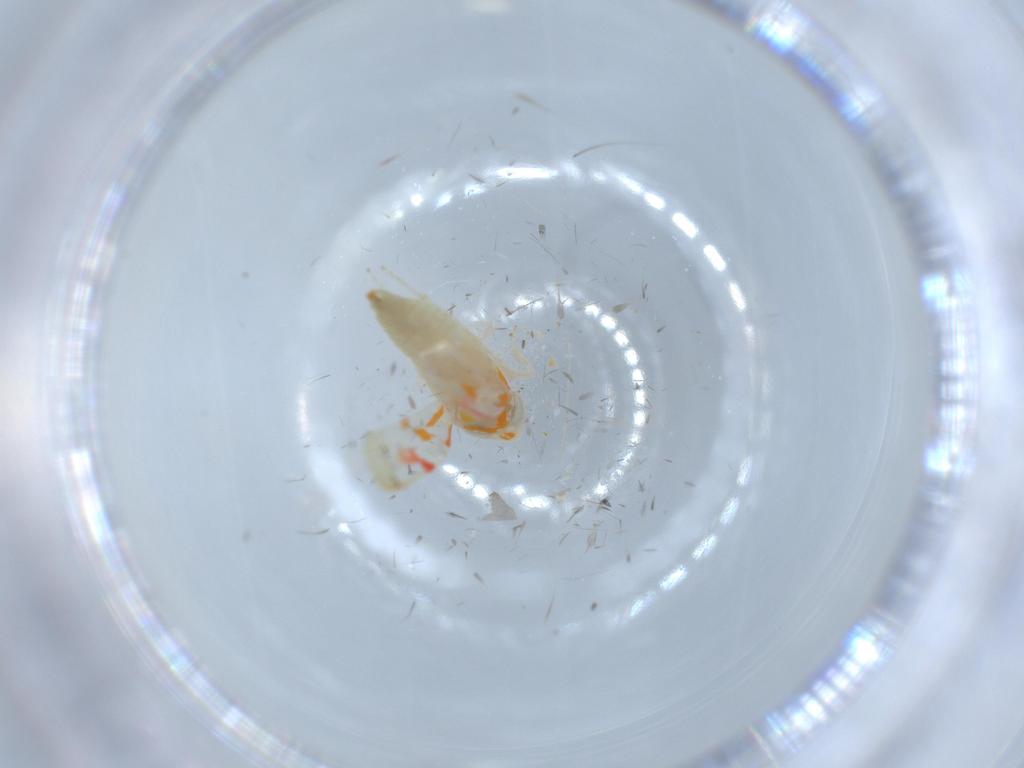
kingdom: Animalia
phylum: Arthropoda
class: Insecta
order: Hemiptera
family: Cicadellidae
